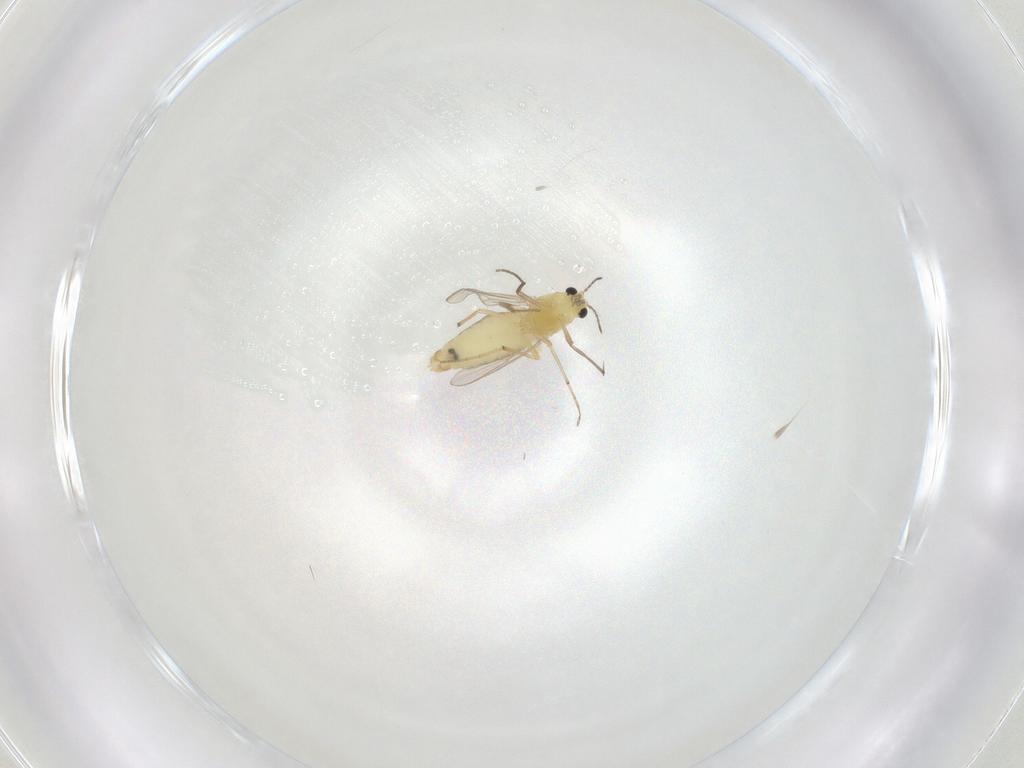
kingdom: Animalia
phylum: Arthropoda
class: Insecta
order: Diptera
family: Chironomidae
